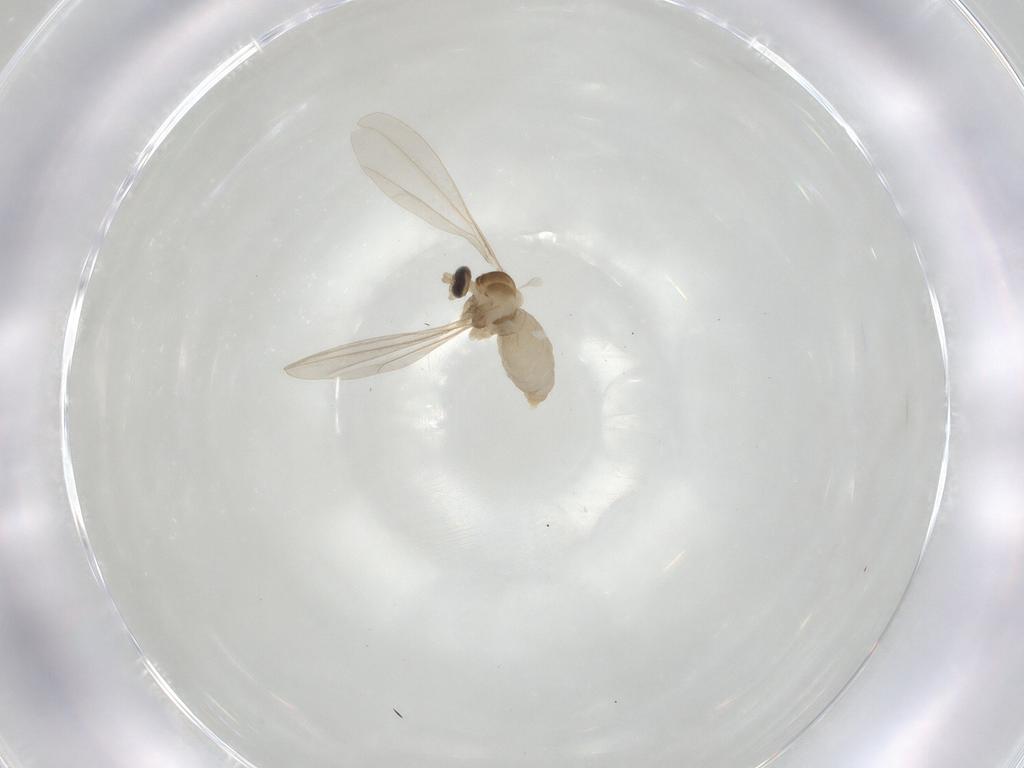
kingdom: Animalia
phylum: Arthropoda
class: Insecta
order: Diptera
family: Cecidomyiidae
